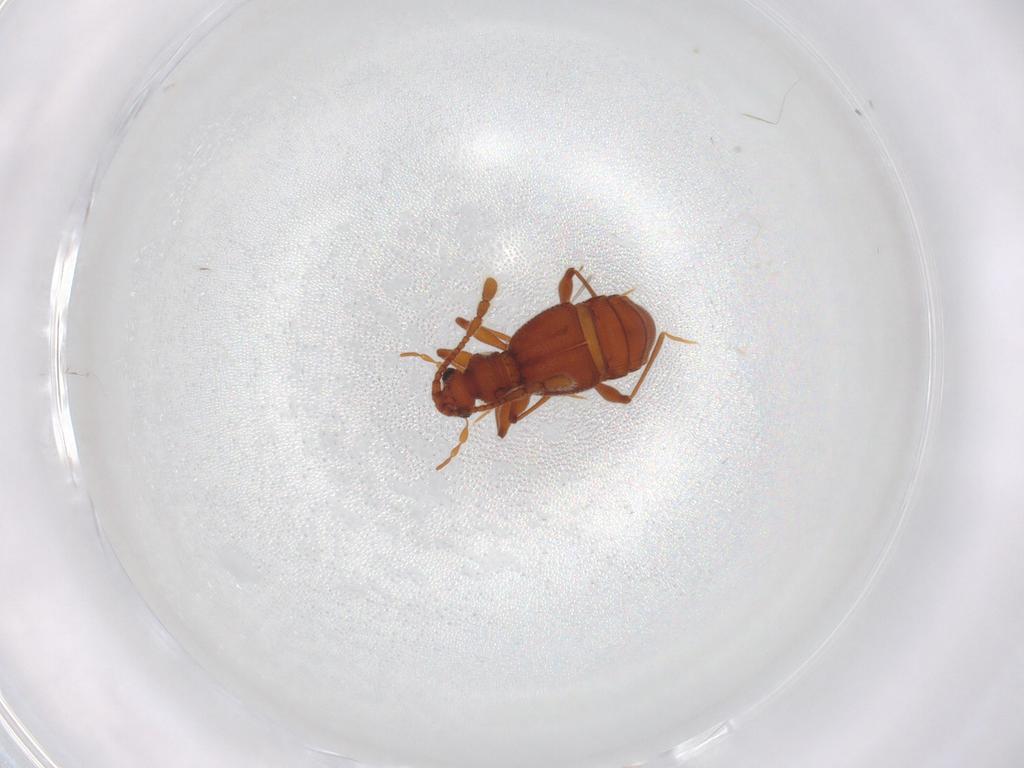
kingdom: Animalia
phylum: Arthropoda
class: Insecta
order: Coleoptera
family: Staphylinidae
